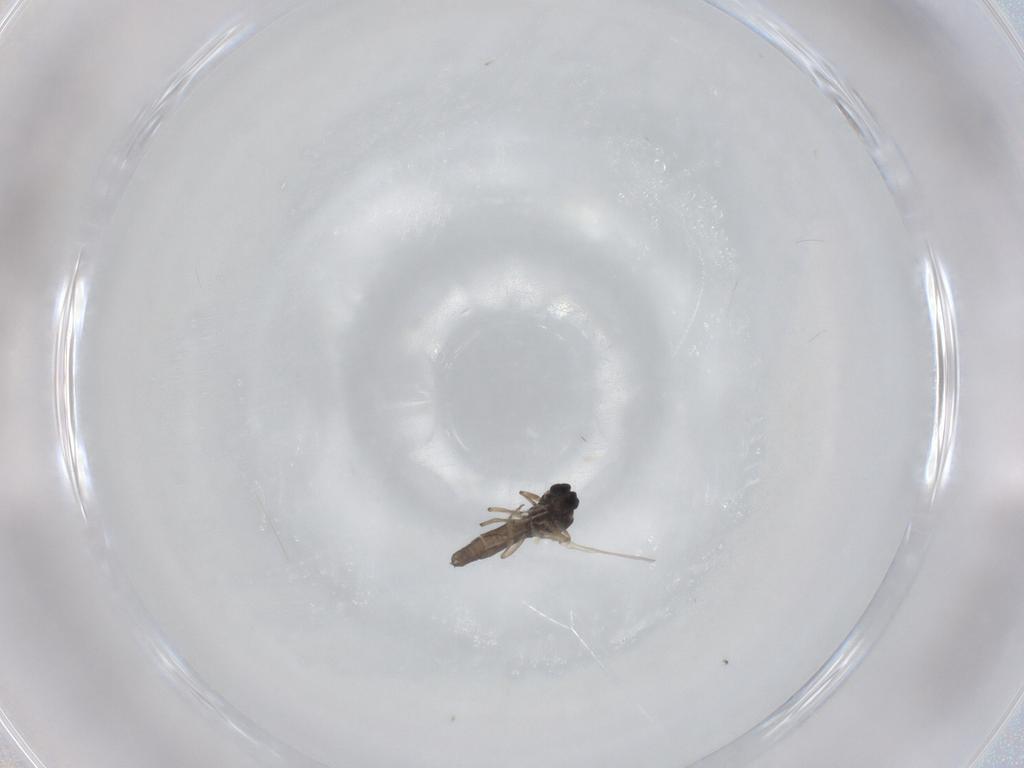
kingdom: Animalia
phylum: Arthropoda
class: Insecta
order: Diptera
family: Ceratopogonidae
